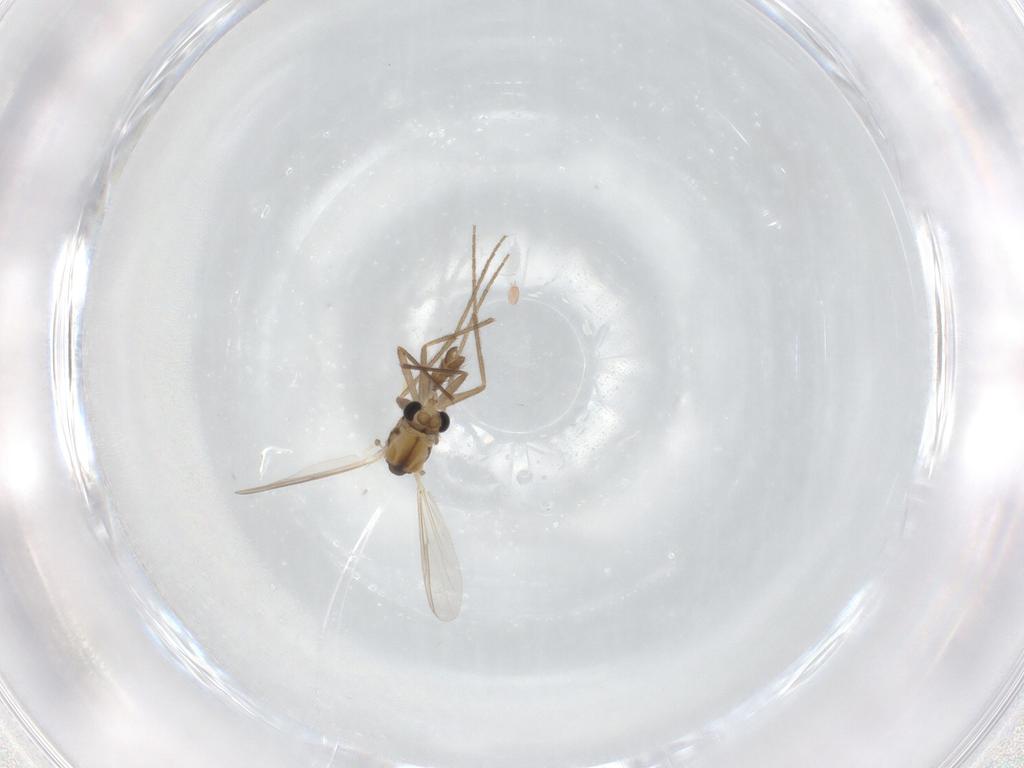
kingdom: Animalia
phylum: Arthropoda
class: Insecta
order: Diptera
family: Chironomidae
